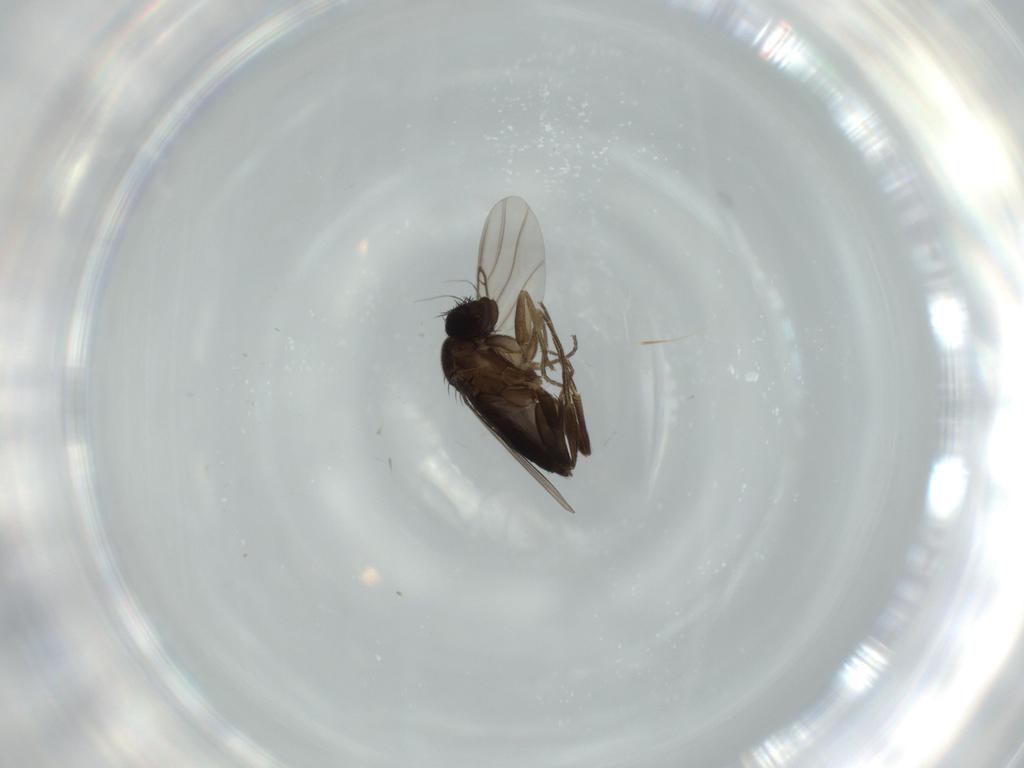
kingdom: Animalia
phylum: Arthropoda
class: Insecta
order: Diptera
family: Phoridae
